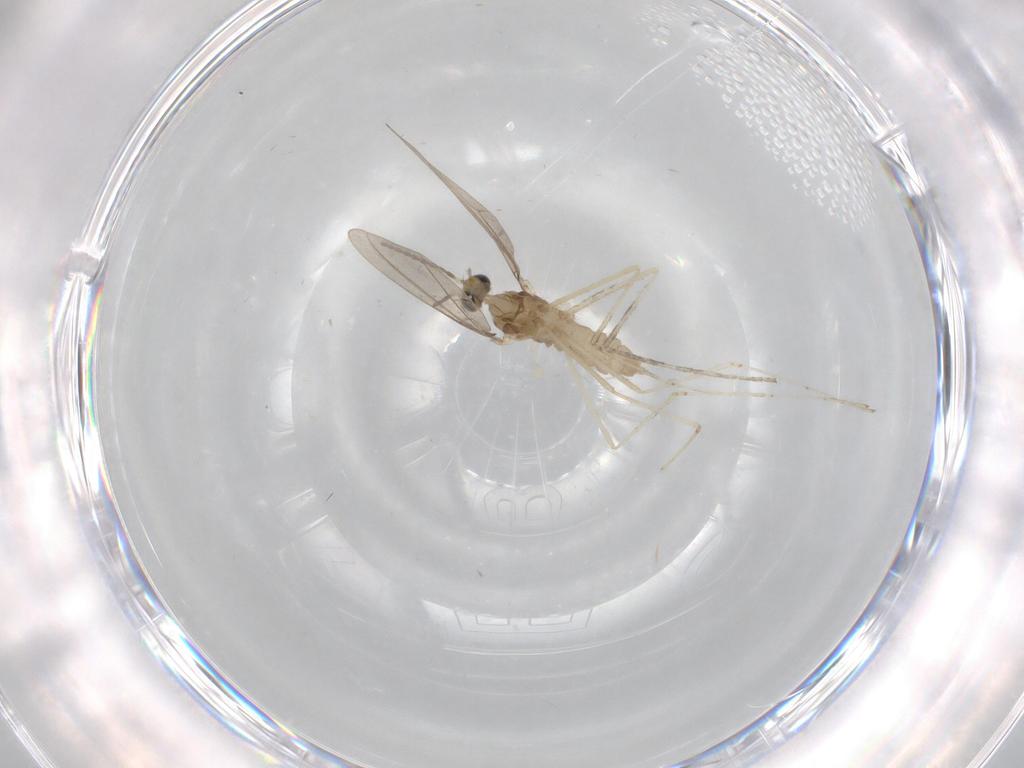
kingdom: Animalia
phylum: Arthropoda
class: Insecta
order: Diptera
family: Cecidomyiidae
